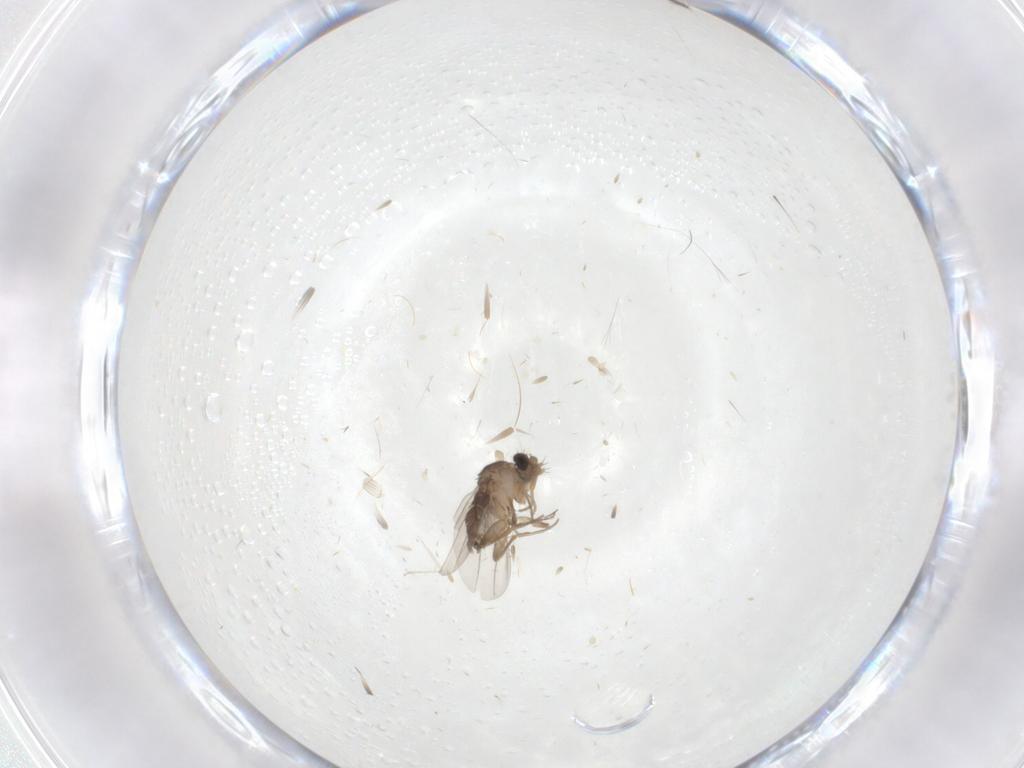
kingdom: Animalia
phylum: Arthropoda
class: Insecta
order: Diptera
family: Phoridae
